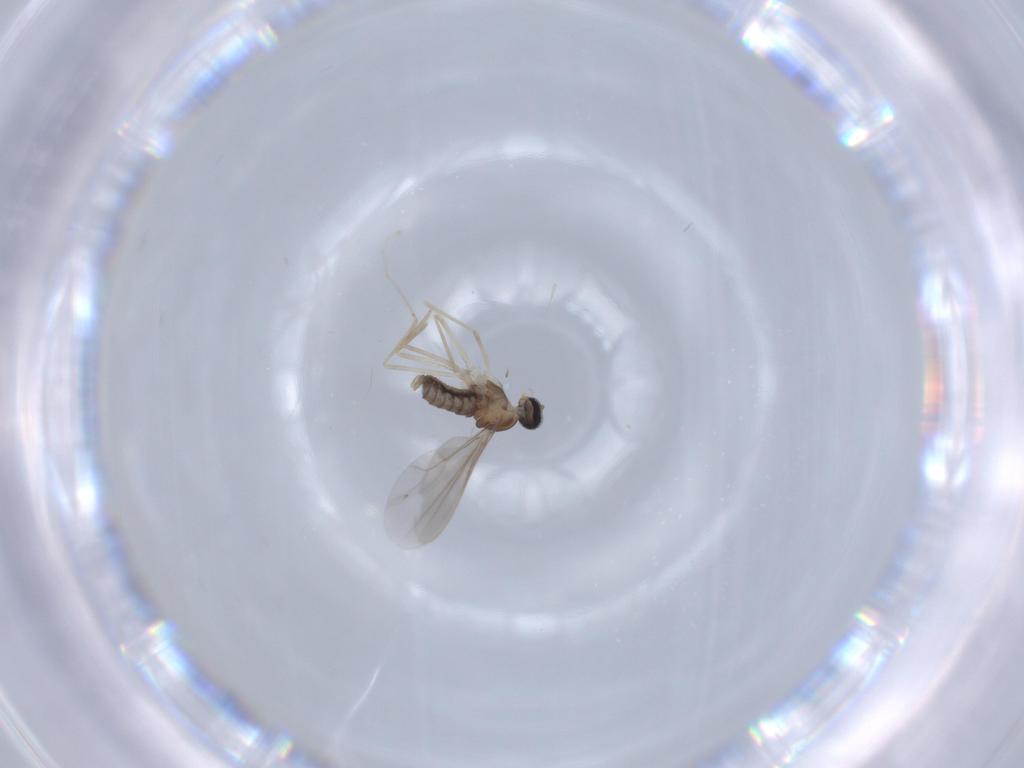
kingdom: Animalia
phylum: Arthropoda
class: Insecta
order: Diptera
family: Cecidomyiidae
